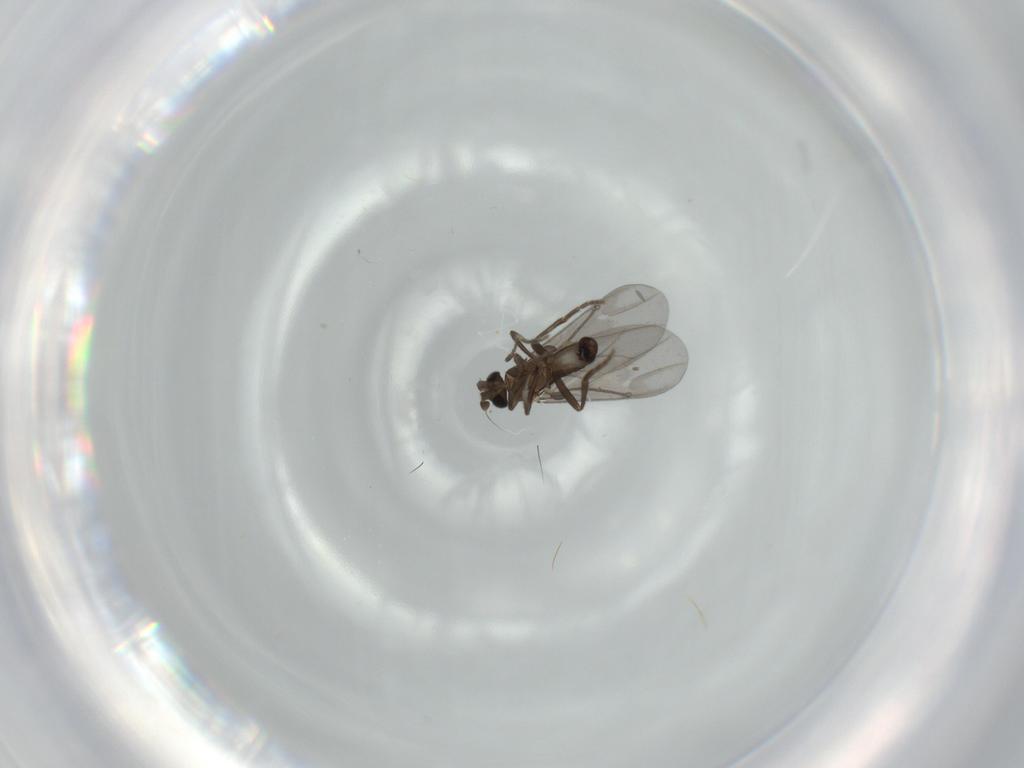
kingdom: Animalia
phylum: Arthropoda
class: Insecta
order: Diptera
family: Phoridae
